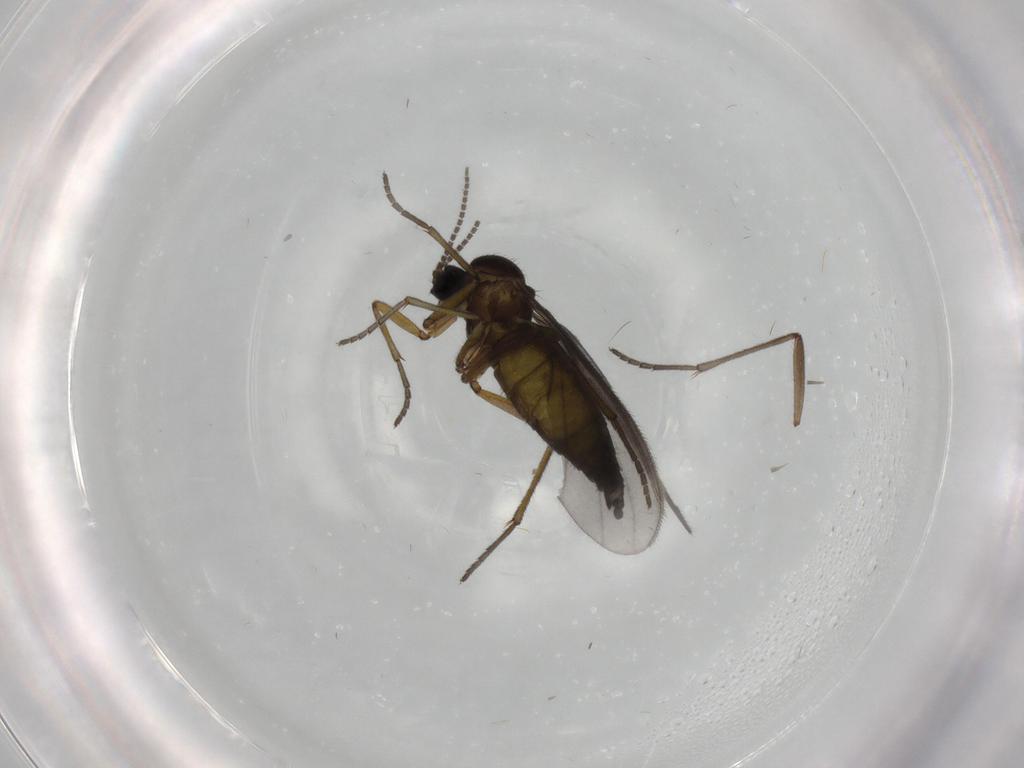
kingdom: Animalia
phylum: Arthropoda
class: Insecta
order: Diptera
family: Sciaridae
